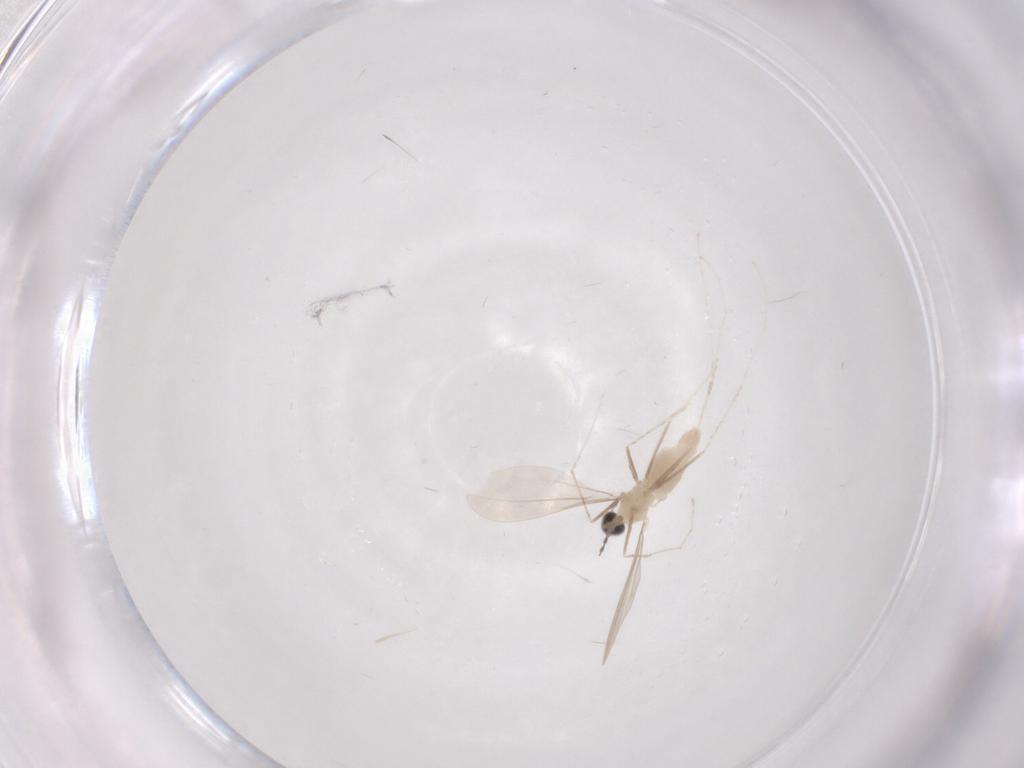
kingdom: Animalia
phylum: Arthropoda
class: Insecta
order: Diptera
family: Cecidomyiidae
